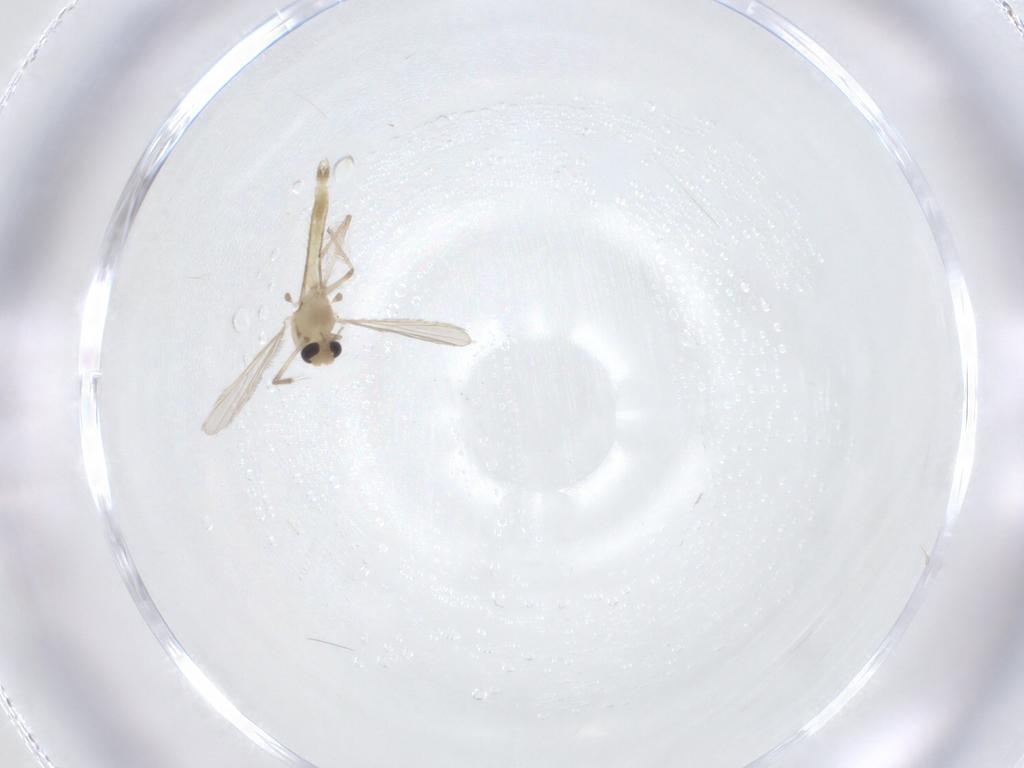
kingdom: Animalia
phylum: Arthropoda
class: Insecta
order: Diptera
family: Chironomidae
